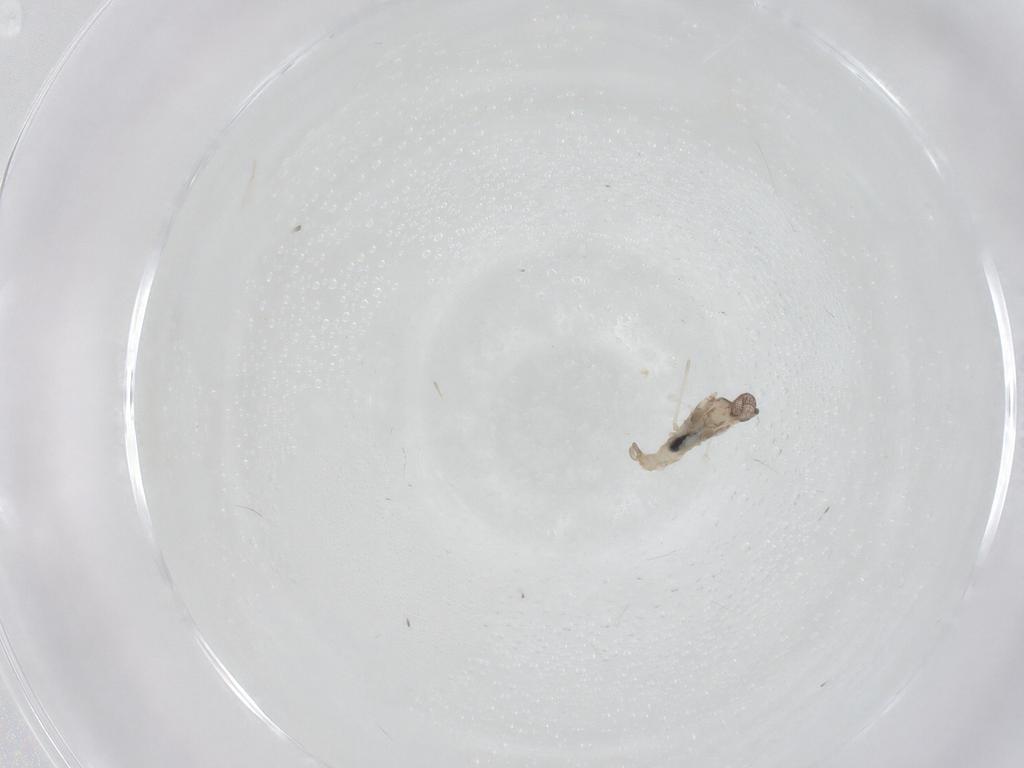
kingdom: Animalia
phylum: Arthropoda
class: Insecta
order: Diptera
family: Cecidomyiidae
